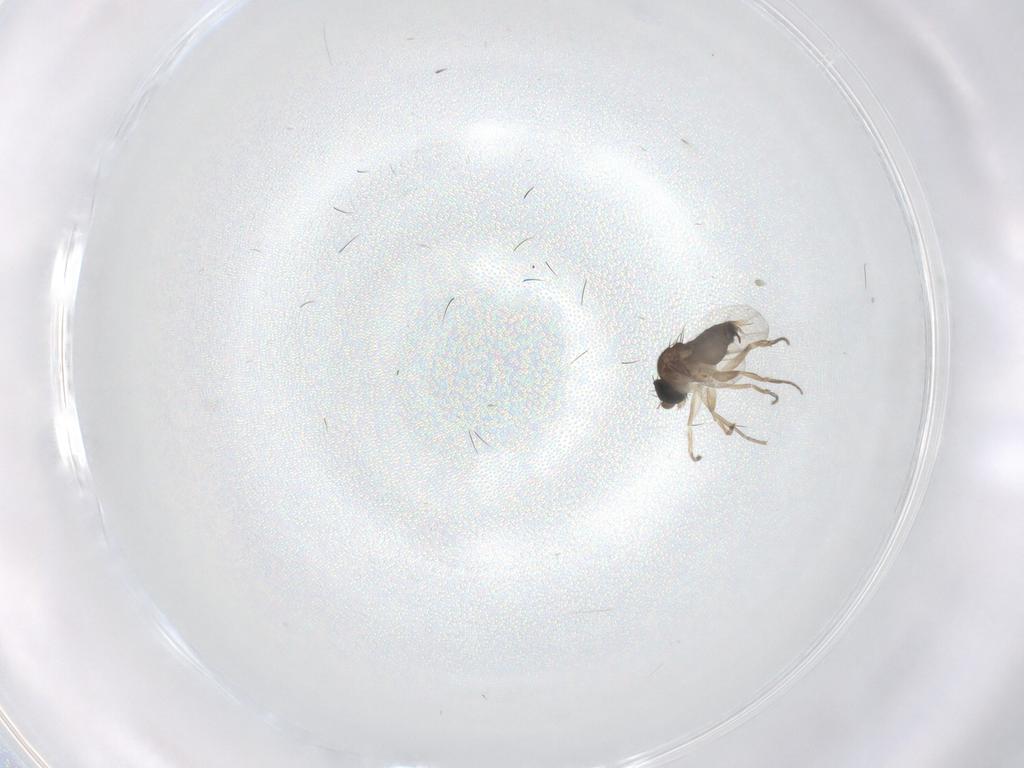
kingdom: Animalia
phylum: Arthropoda
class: Insecta
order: Diptera
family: Phoridae
